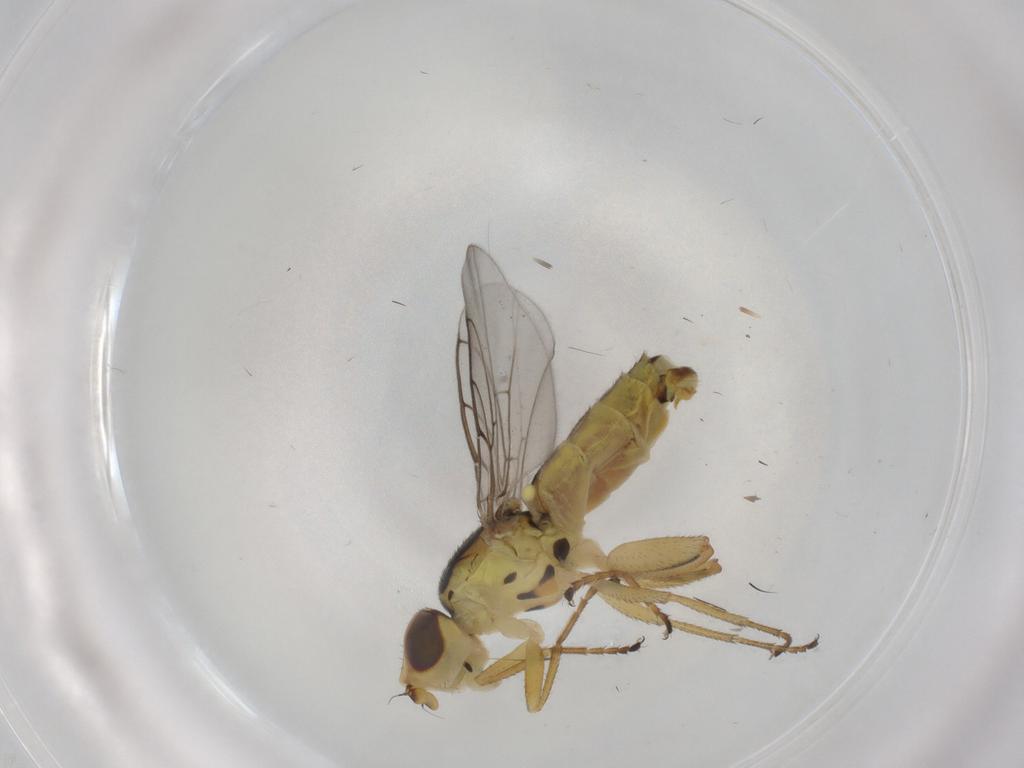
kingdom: Animalia
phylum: Arthropoda
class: Insecta
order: Diptera
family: Chloropidae
